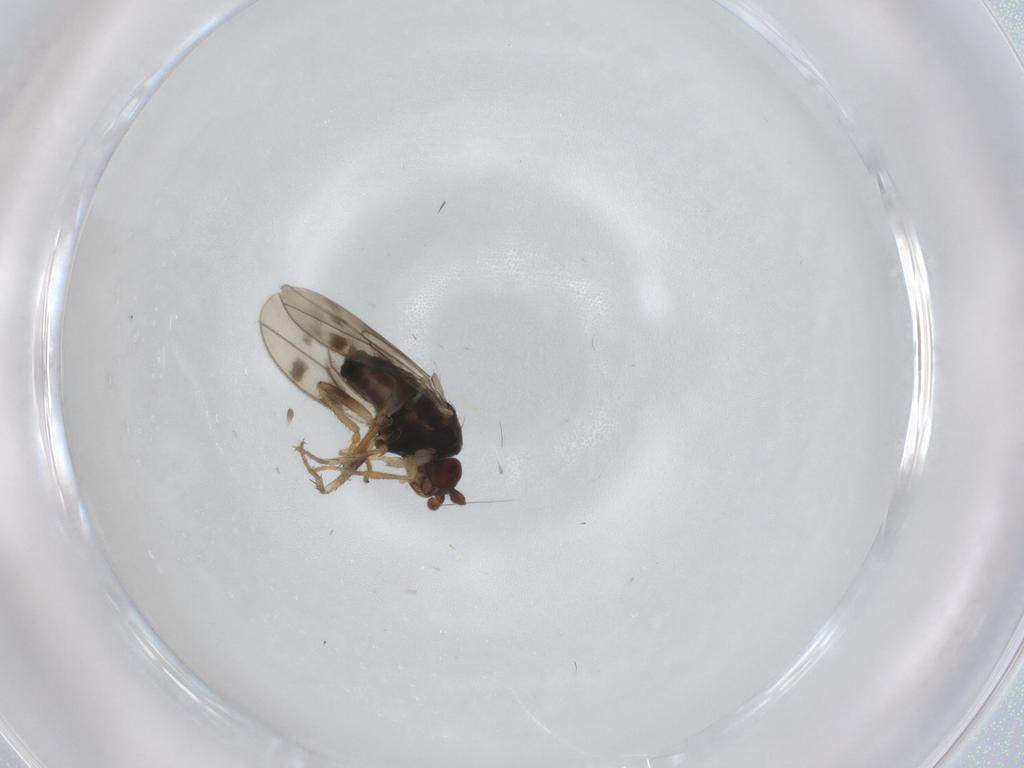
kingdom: Animalia
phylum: Arthropoda
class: Insecta
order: Diptera
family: Sphaeroceridae
